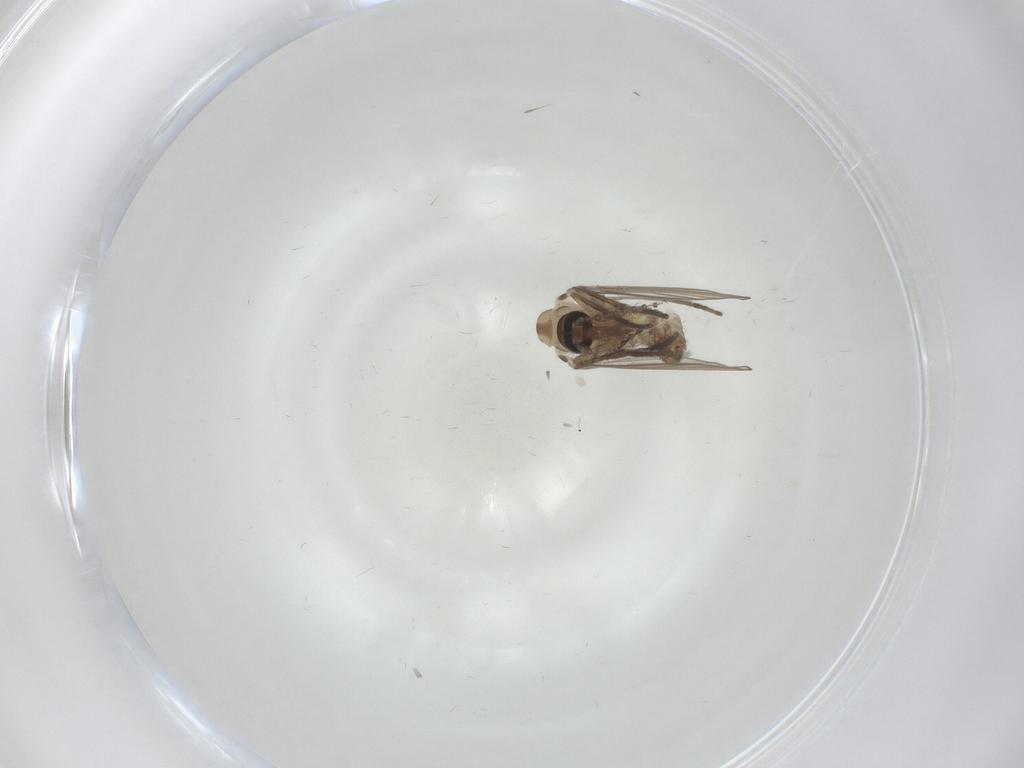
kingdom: Animalia
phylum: Arthropoda
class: Insecta
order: Diptera
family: Psychodidae
